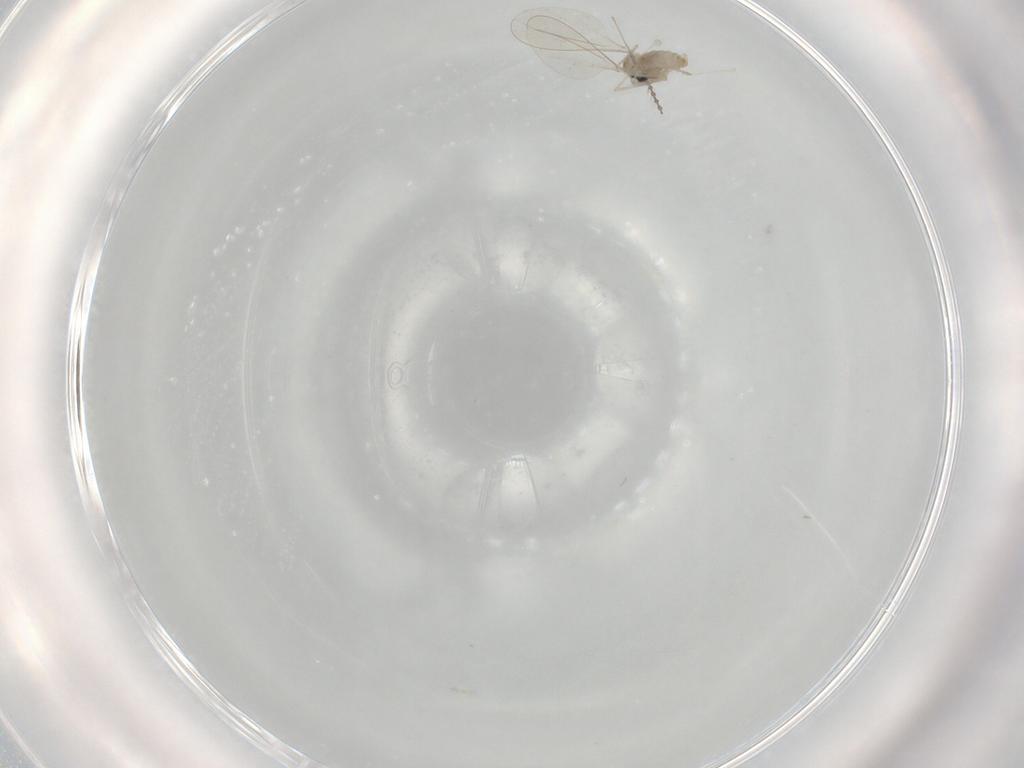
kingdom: Animalia
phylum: Arthropoda
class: Insecta
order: Diptera
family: Cecidomyiidae
